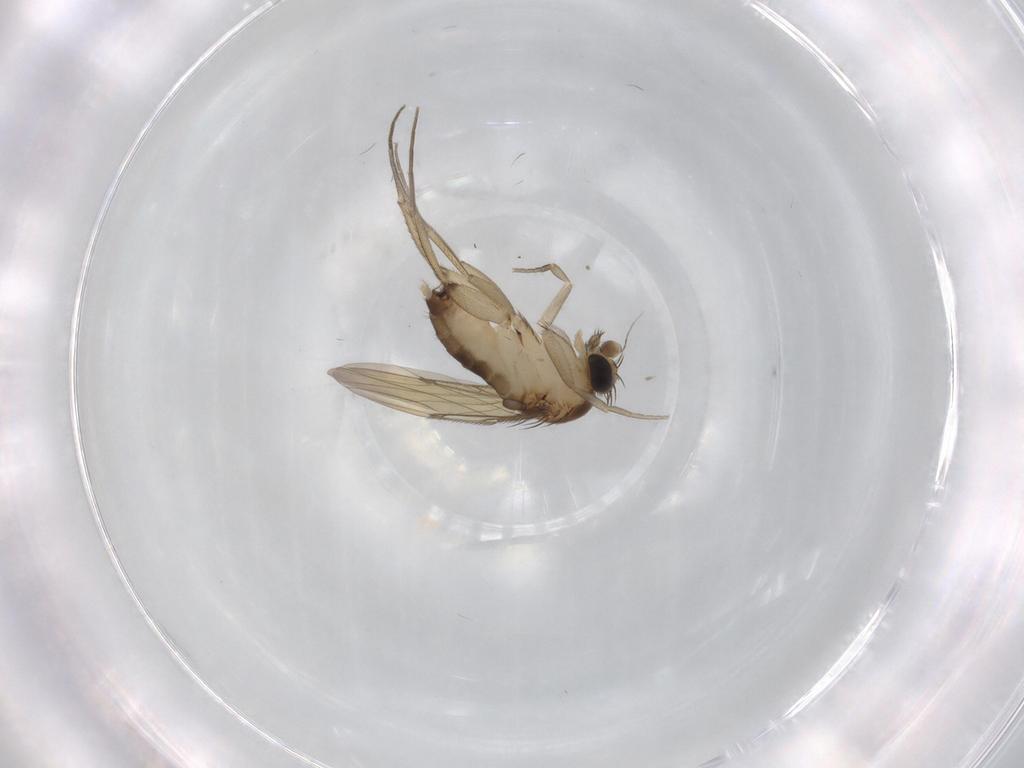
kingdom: Animalia
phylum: Arthropoda
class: Insecta
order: Diptera
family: Phoridae
